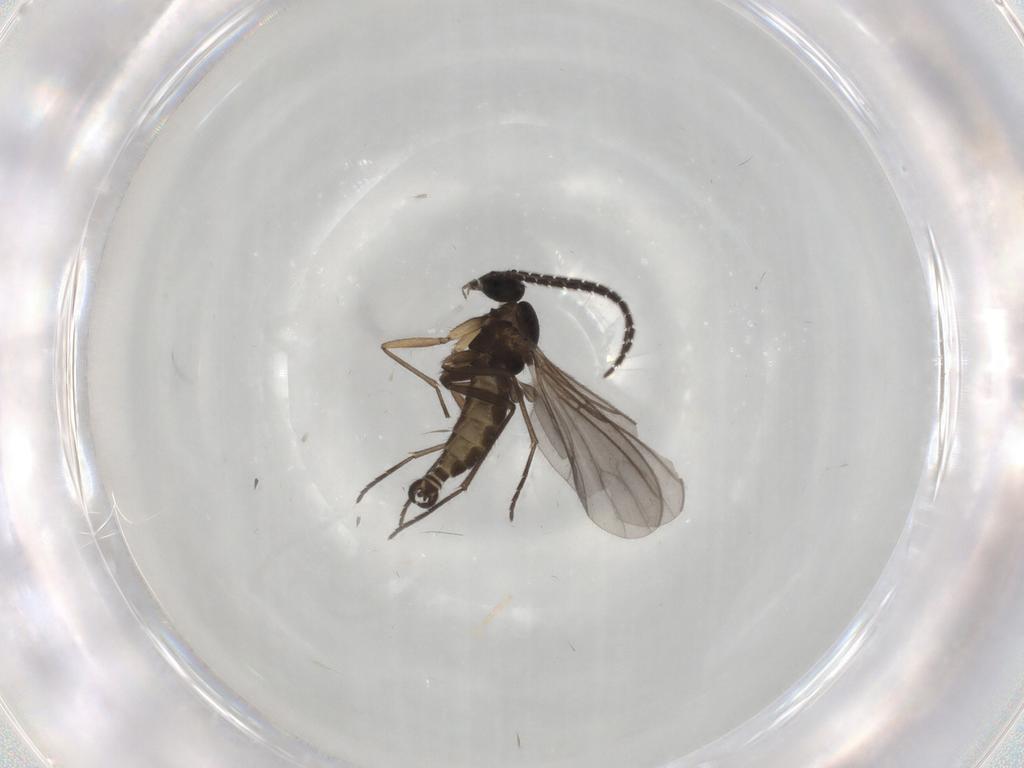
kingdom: Animalia
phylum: Arthropoda
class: Insecta
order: Diptera
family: Sciaridae
